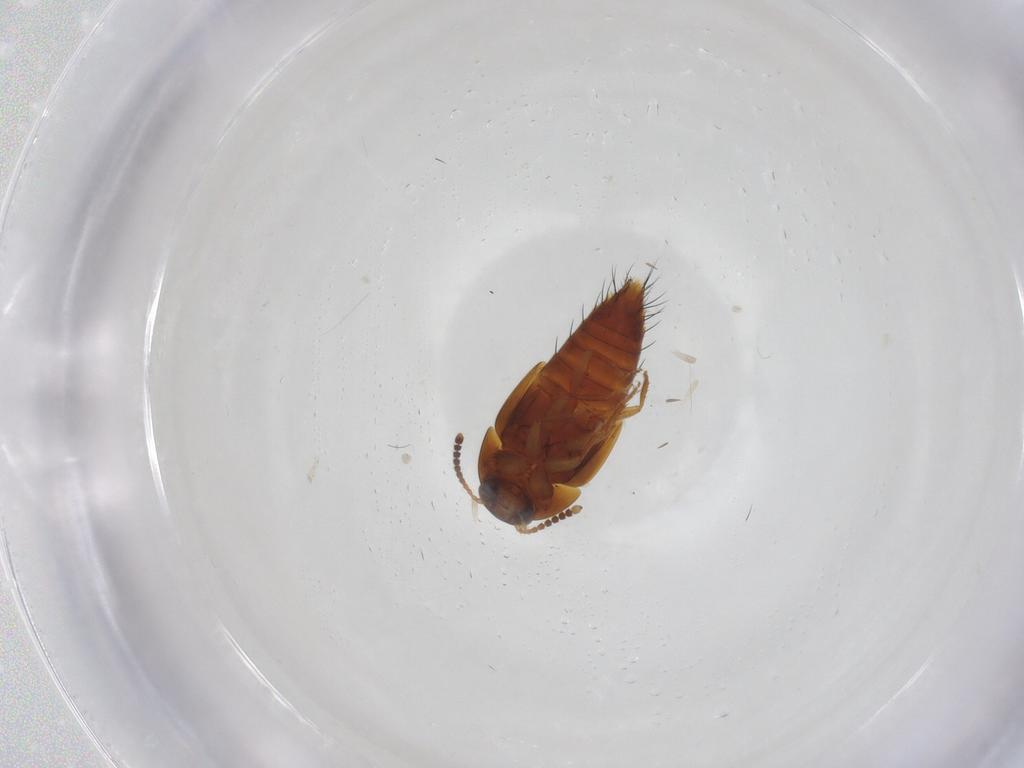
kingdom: Animalia
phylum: Arthropoda
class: Insecta
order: Coleoptera
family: Staphylinidae
